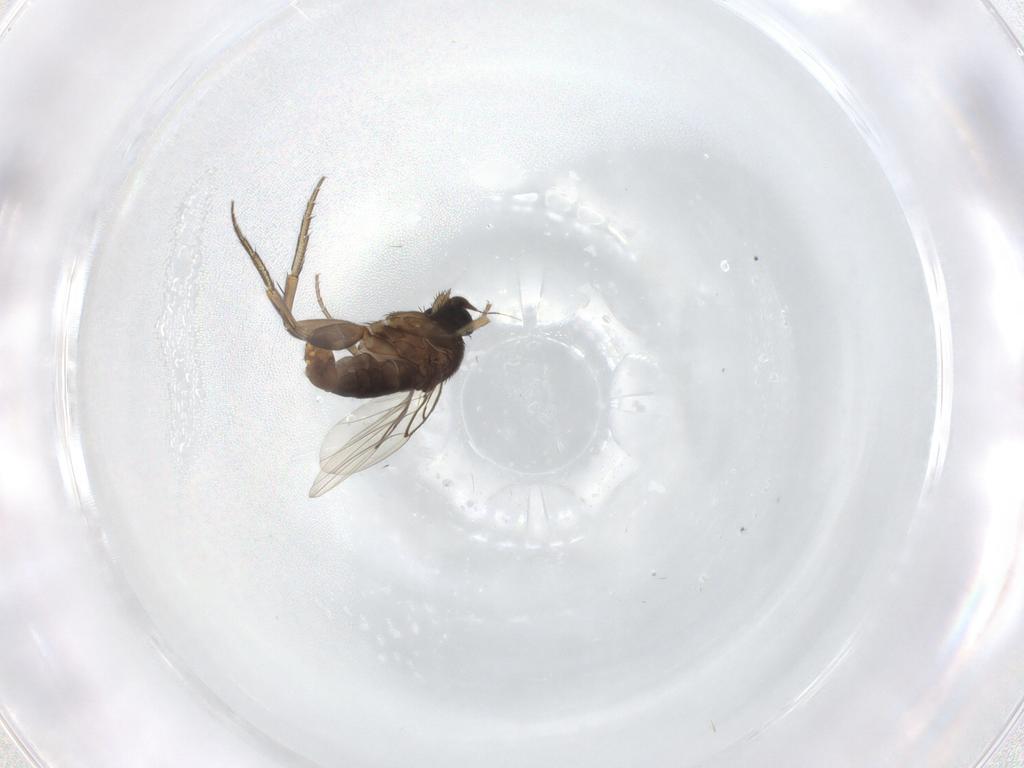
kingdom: Animalia
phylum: Arthropoda
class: Insecta
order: Diptera
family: Phoridae
